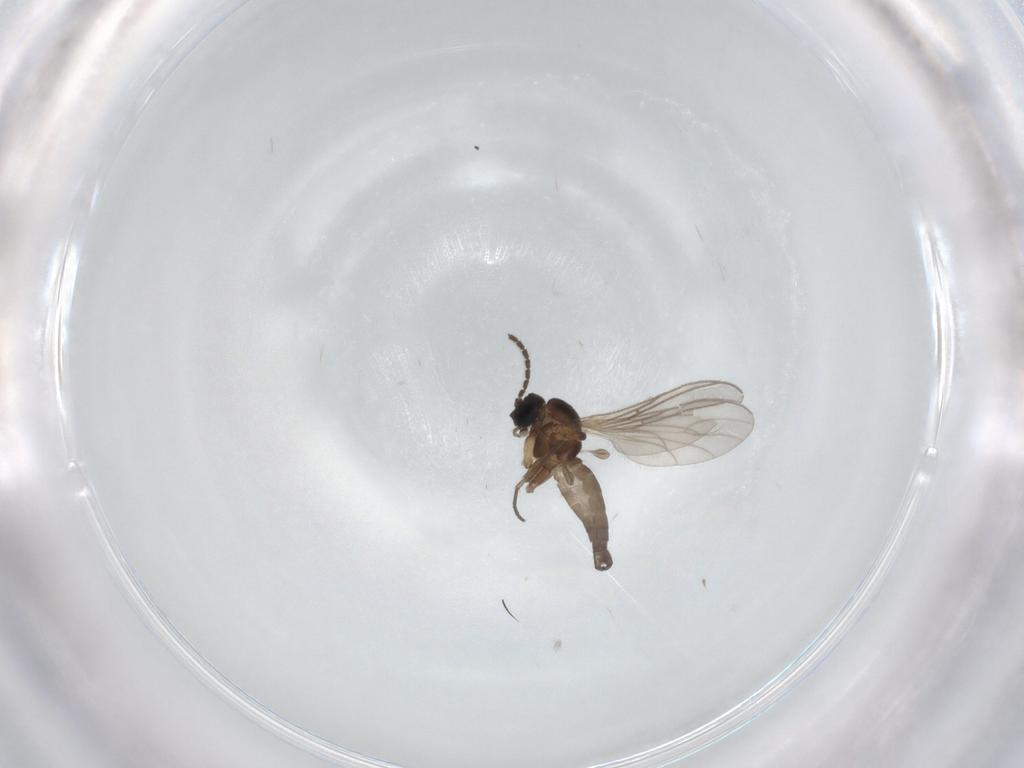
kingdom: Animalia
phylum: Arthropoda
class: Insecta
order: Diptera
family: Sciaridae
